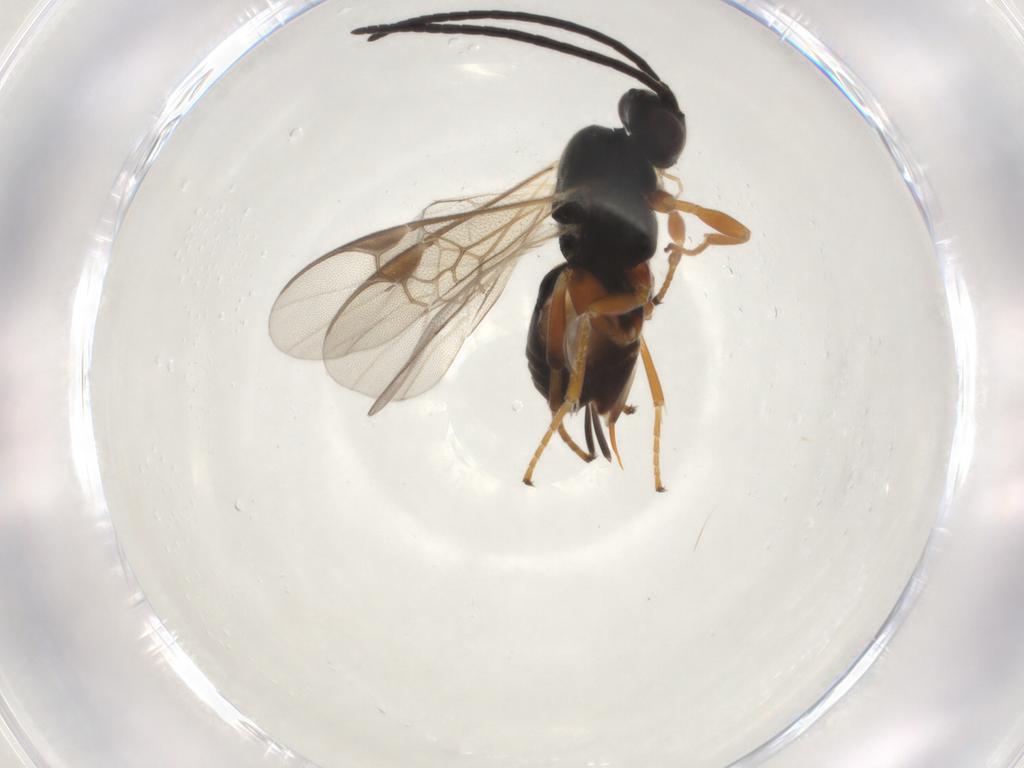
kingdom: Animalia
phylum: Arthropoda
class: Insecta
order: Hymenoptera
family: Braconidae
